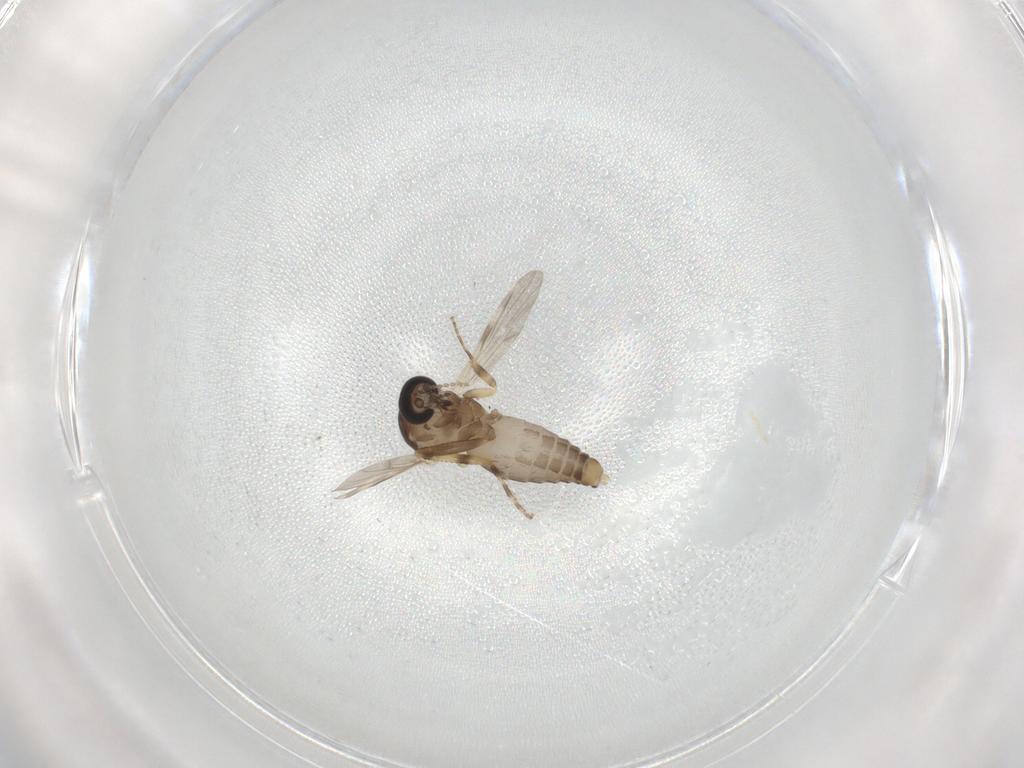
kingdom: Animalia
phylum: Arthropoda
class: Insecta
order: Diptera
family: Ceratopogonidae
